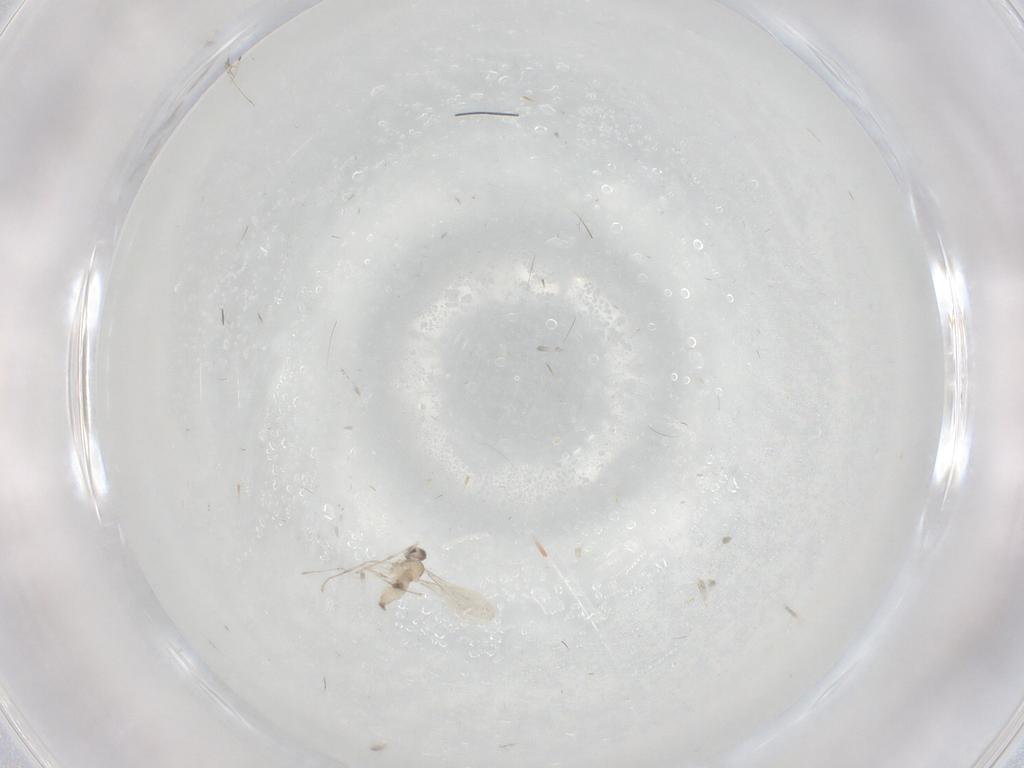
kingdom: Animalia
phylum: Arthropoda
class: Insecta
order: Diptera
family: Cecidomyiidae
